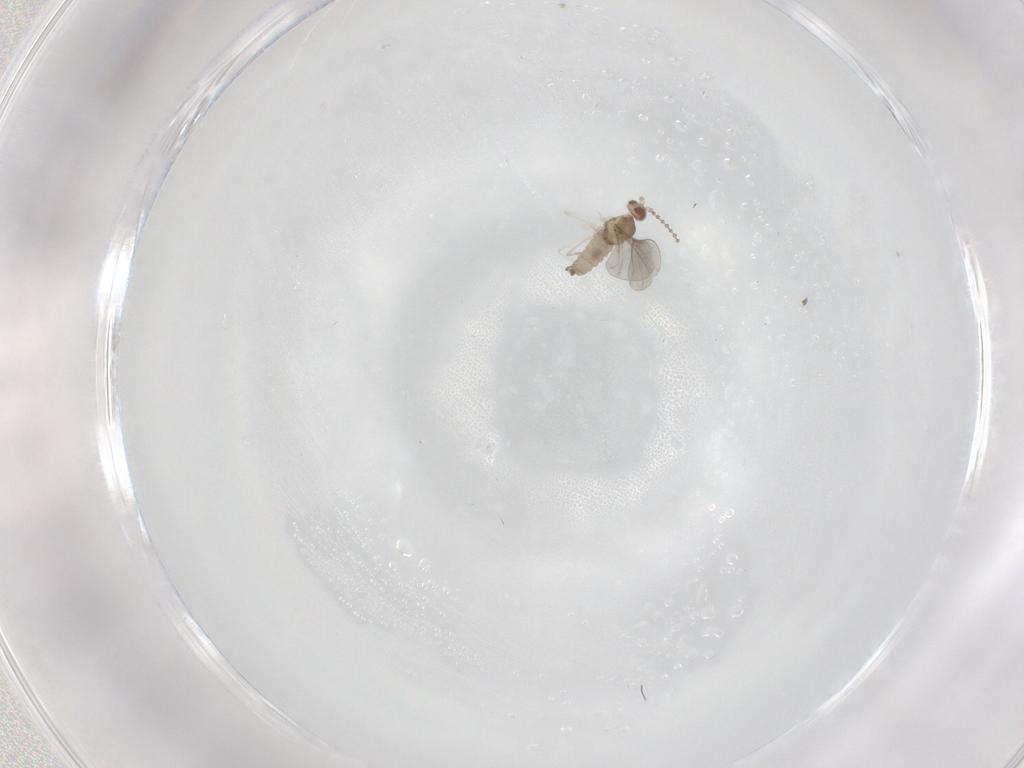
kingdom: Animalia
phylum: Arthropoda
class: Insecta
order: Diptera
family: Cecidomyiidae
